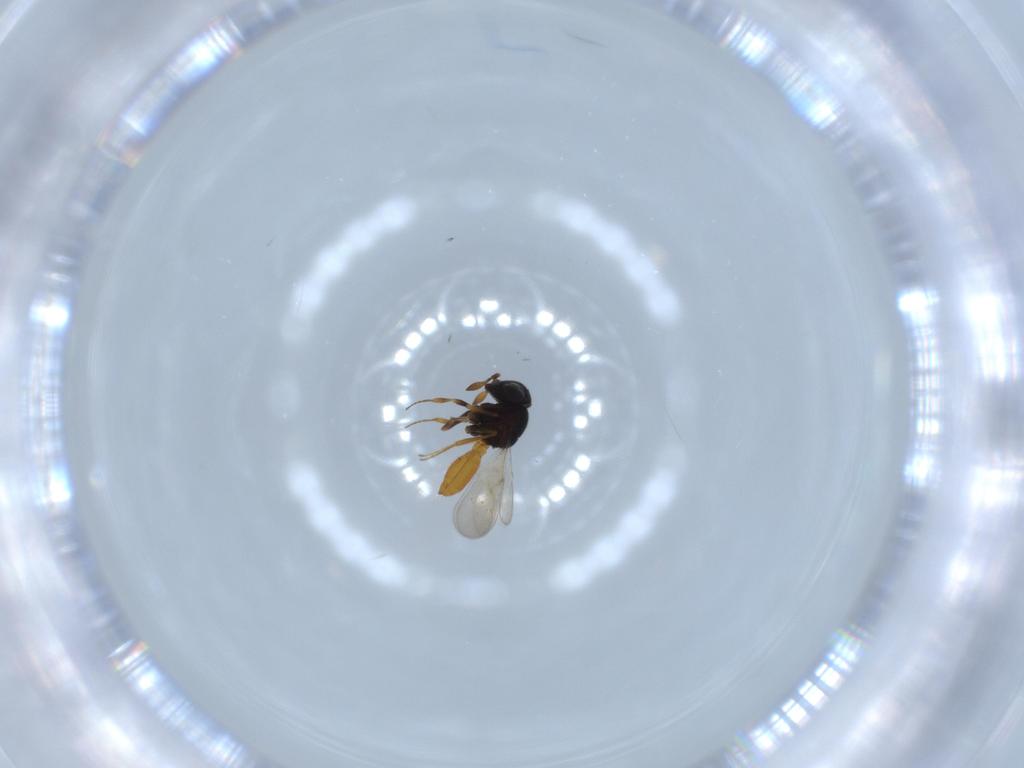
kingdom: Animalia
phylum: Arthropoda
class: Insecta
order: Hymenoptera
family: Scelionidae
